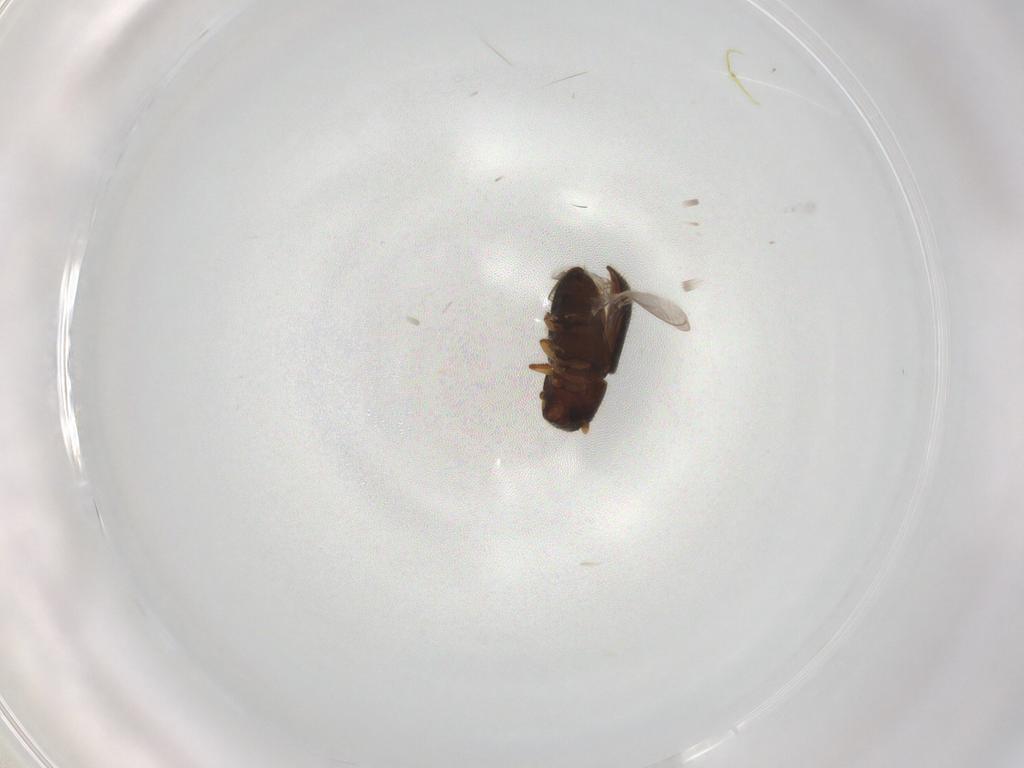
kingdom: Animalia
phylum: Arthropoda
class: Insecta
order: Coleoptera
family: Curculionidae
